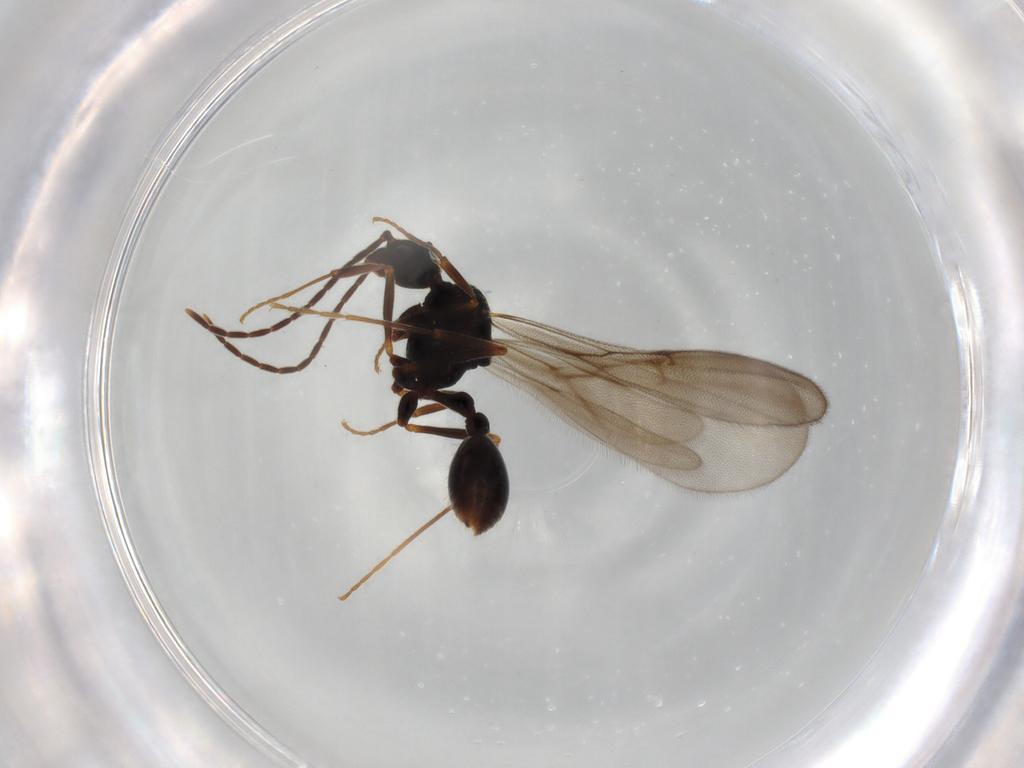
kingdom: Animalia
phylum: Arthropoda
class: Insecta
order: Hymenoptera
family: Formicidae
